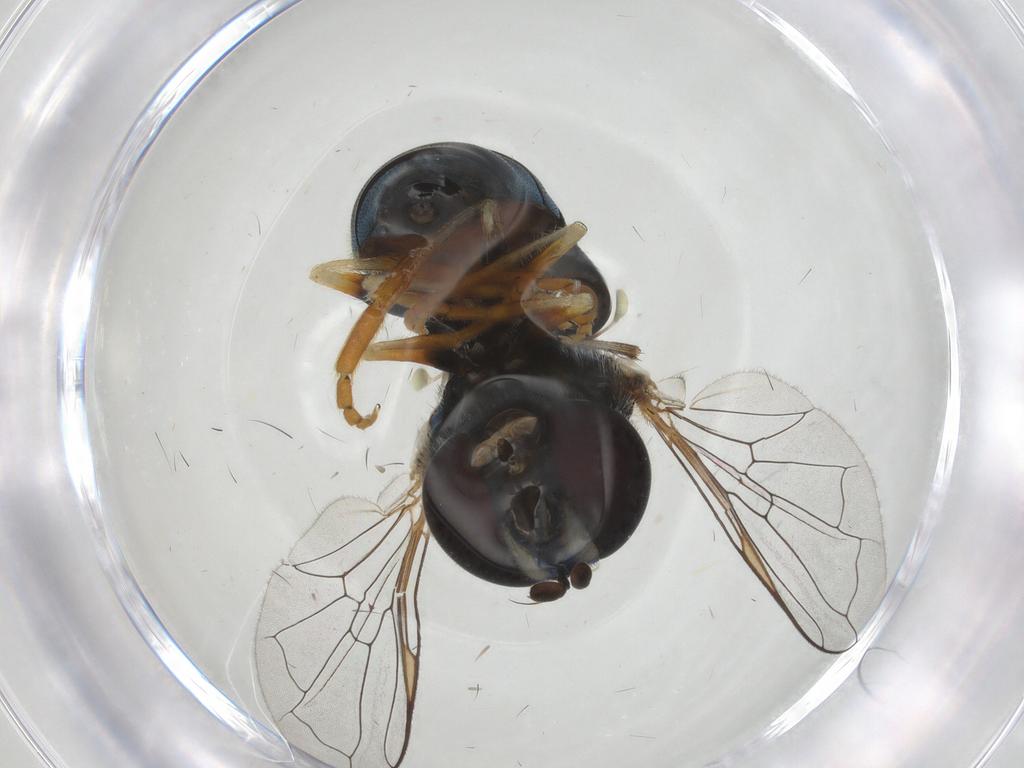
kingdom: Animalia
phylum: Arthropoda
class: Insecta
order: Diptera
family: Syrphidae
